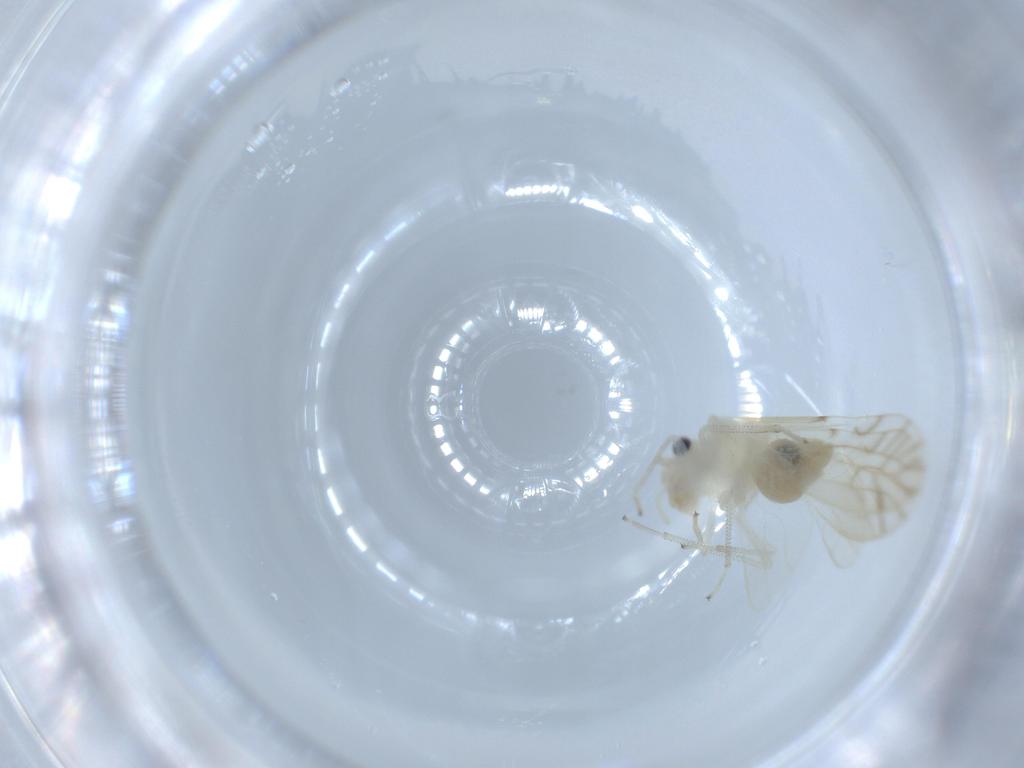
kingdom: Animalia
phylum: Arthropoda
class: Insecta
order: Psocodea
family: Caeciliusidae
